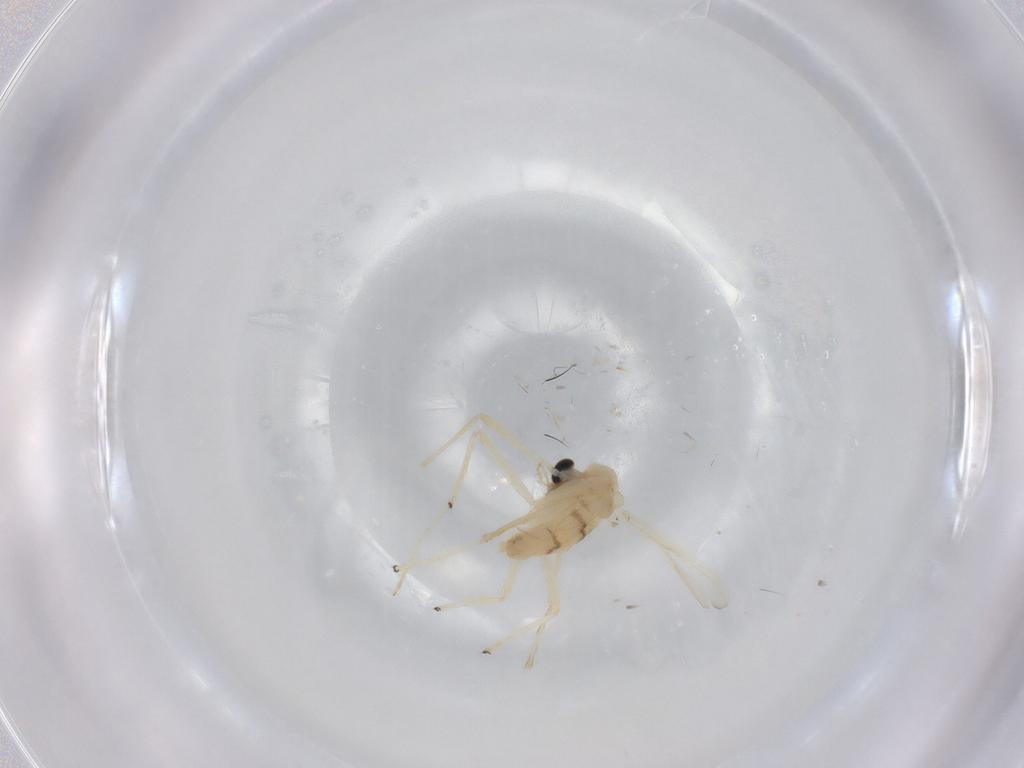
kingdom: Animalia
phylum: Arthropoda
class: Insecta
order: Diptera
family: Chironomidae
